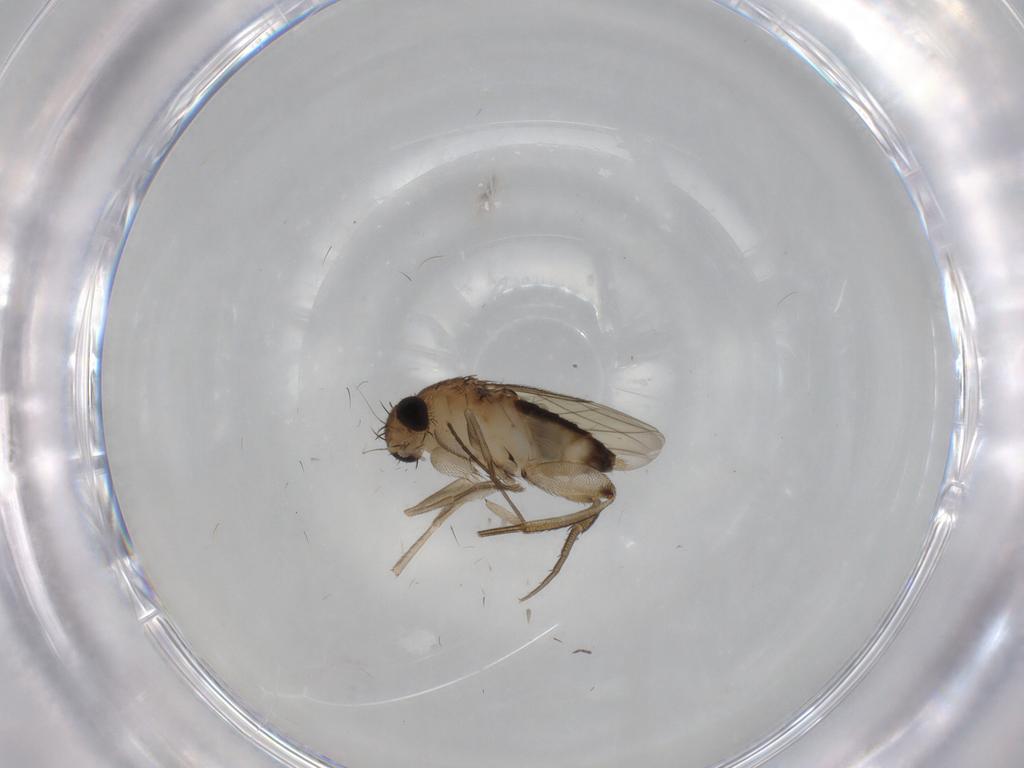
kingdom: Animalia
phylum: Arthropoda
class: Insecta
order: Diptera
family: Phoridae
